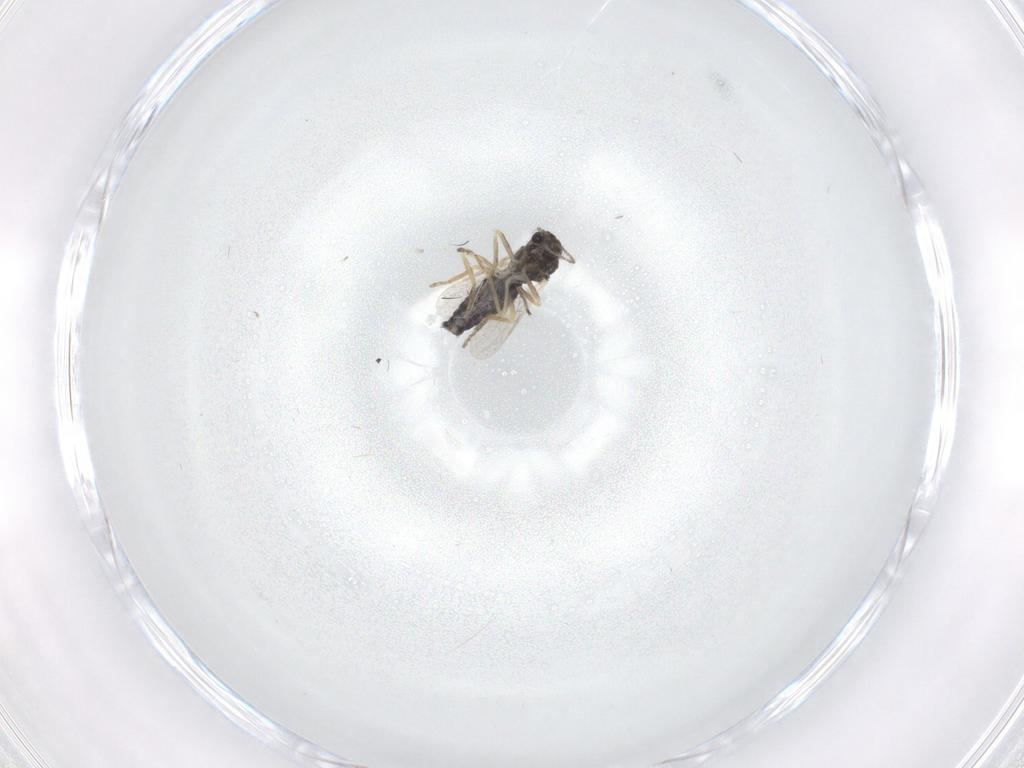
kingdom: Animalia
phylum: Arthropoda
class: Insecta
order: Diptera
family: Ceratopogonidae
